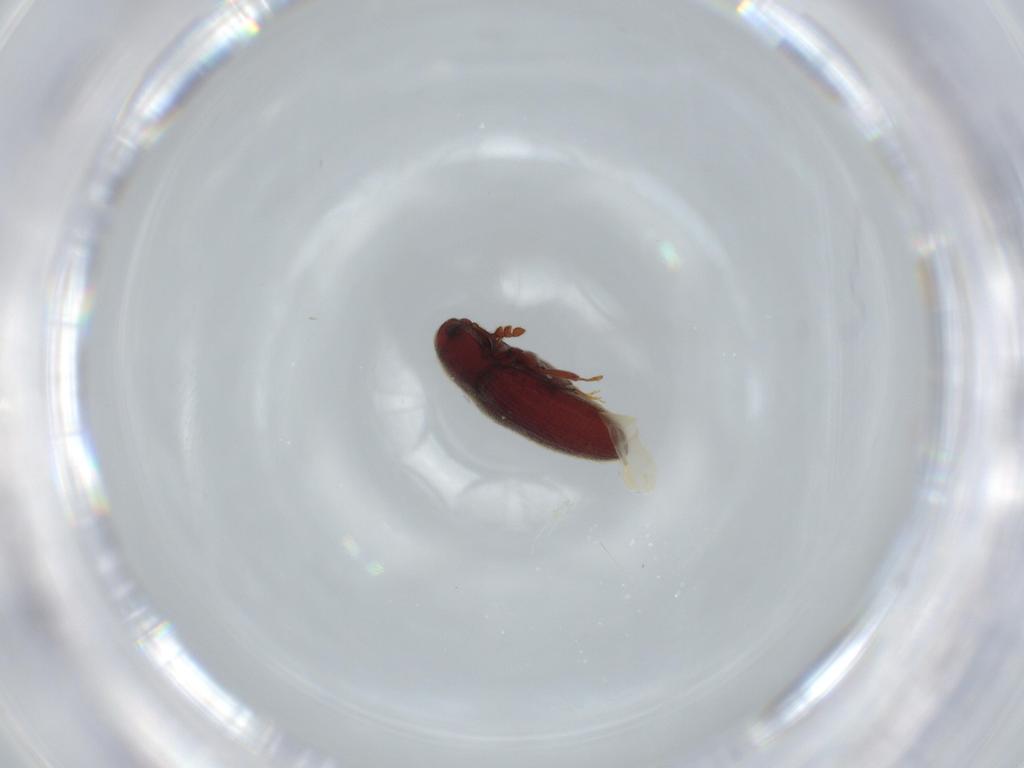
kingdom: Animalia
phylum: Arthropoda
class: Insecta
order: Coleoptera
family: Throscidae
